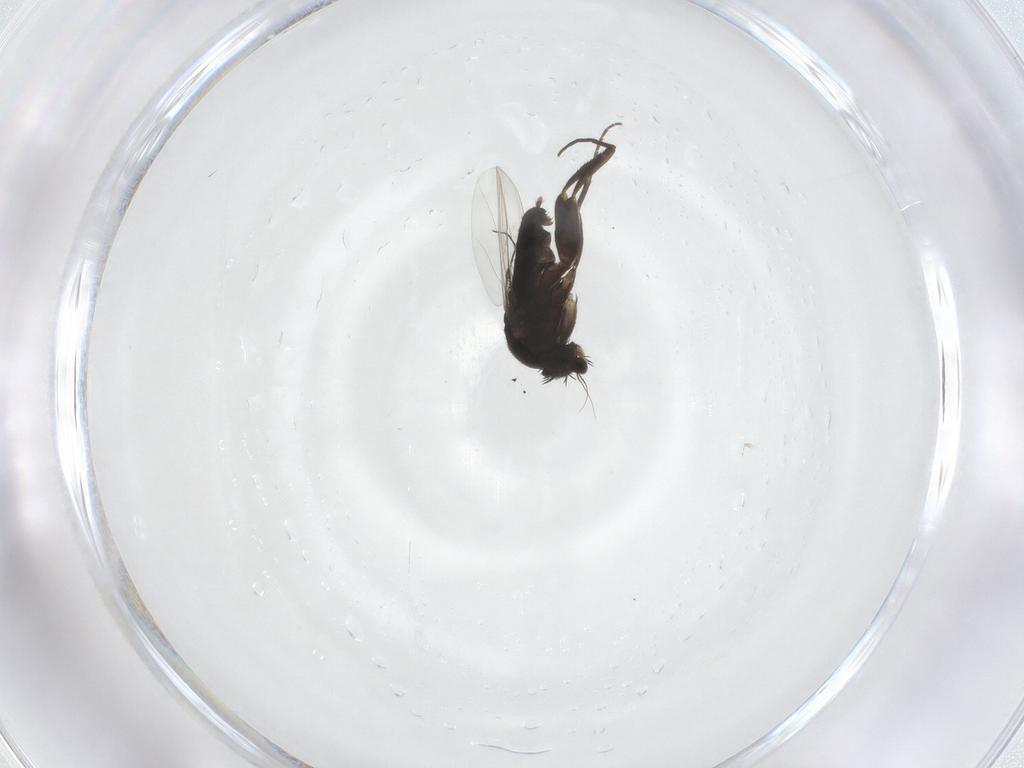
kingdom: Animalia
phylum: Arthropoda
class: Insecta
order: Diptera
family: Phoridae
